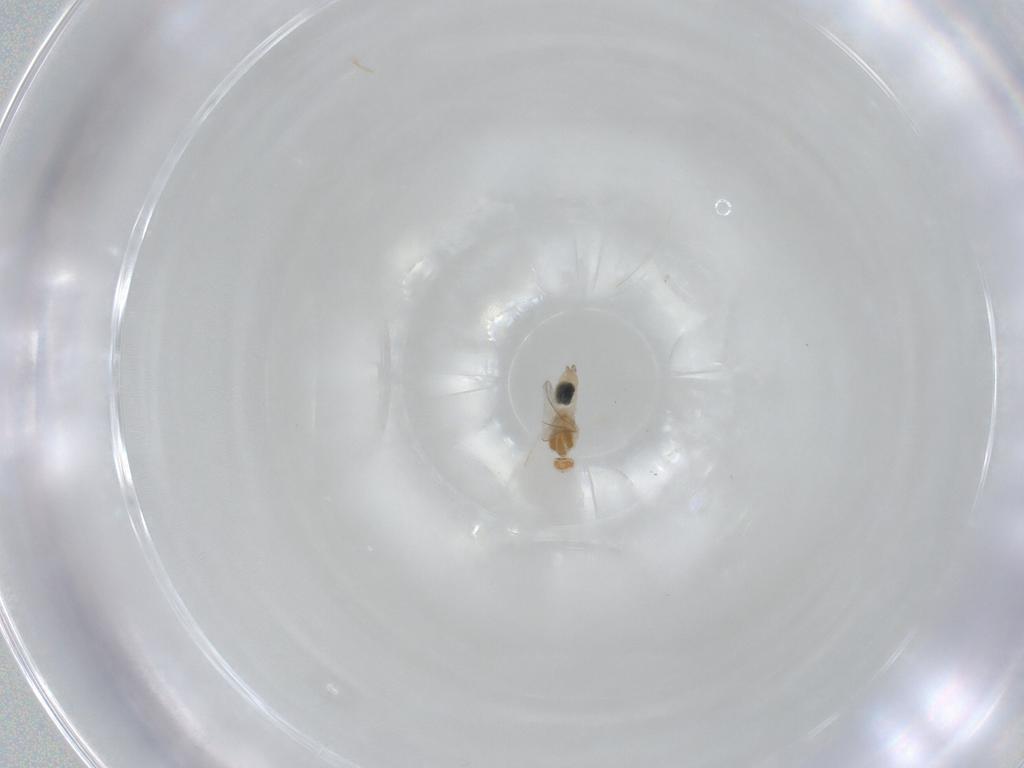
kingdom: Animalia
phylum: Arthropoda
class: Insecta
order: Diptera
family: Cecidomyiidae
